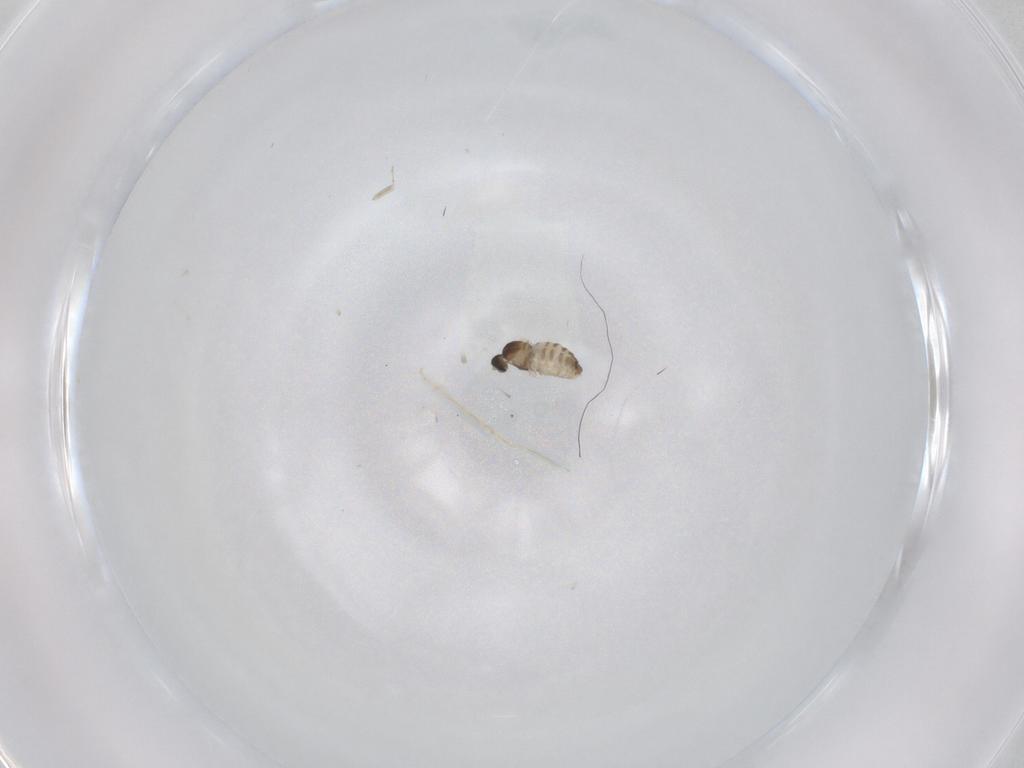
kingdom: Animalia
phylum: Arthropoda
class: Insecta
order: Diptera
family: Cecidomyiidae
